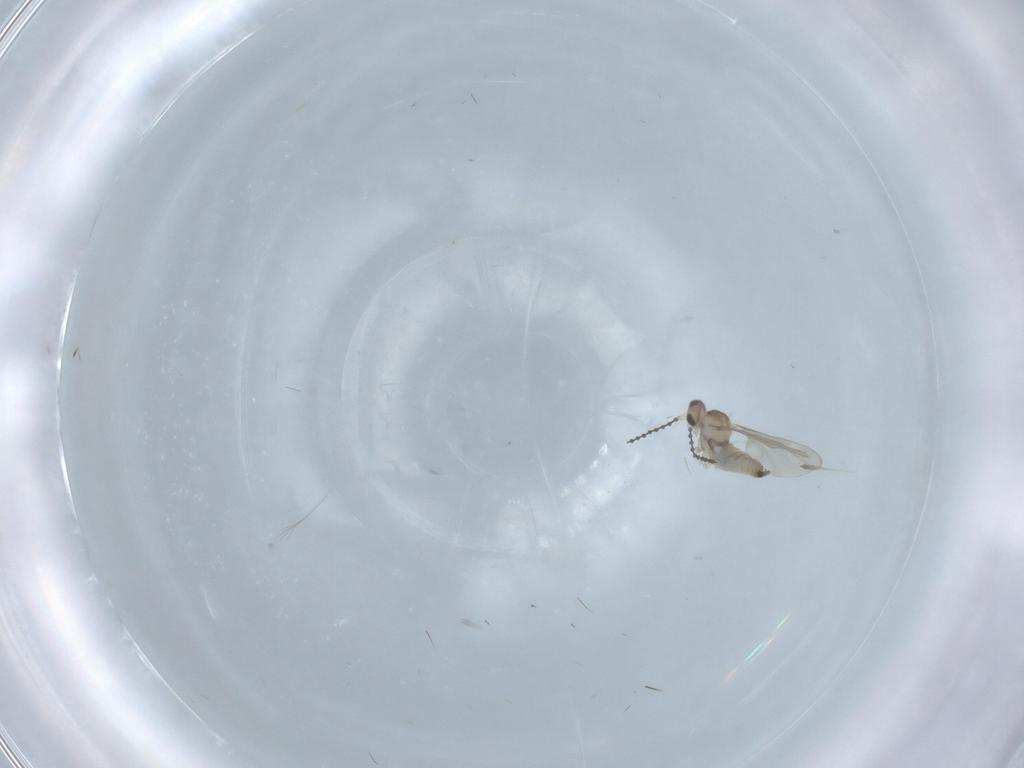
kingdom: Animalia
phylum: Arthropoda
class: Insecta
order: Diptera
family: Cecidomyiidae
